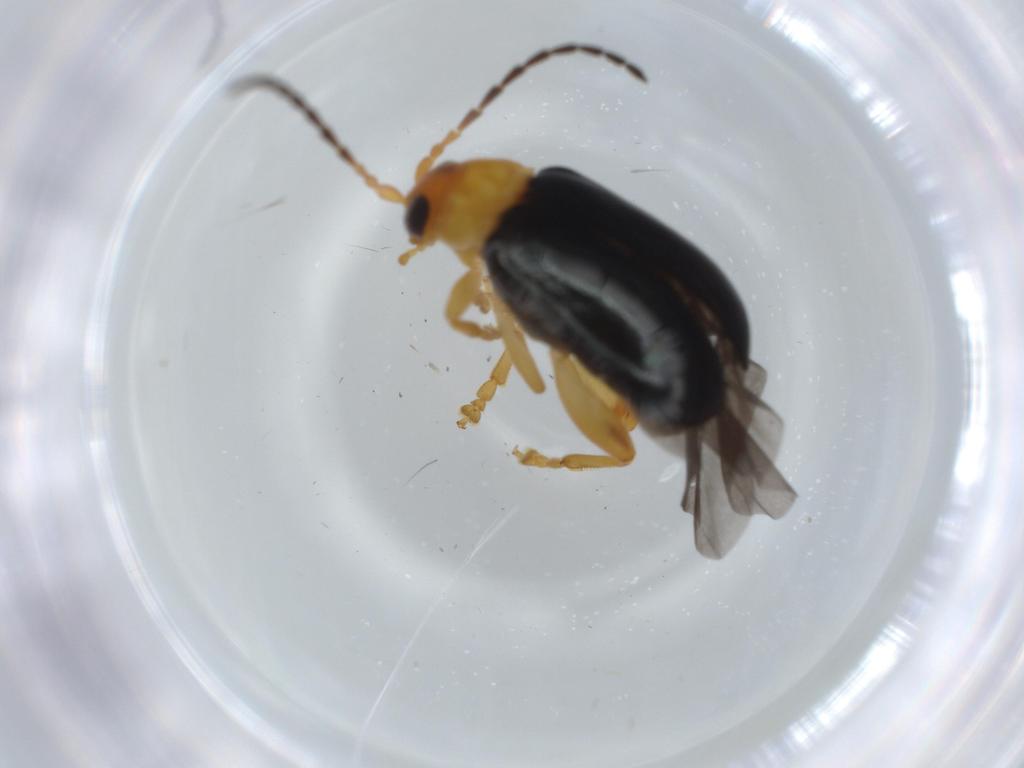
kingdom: Animalia
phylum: Arthropoda
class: Insecta
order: Coleoptera
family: Chrysomelidae
